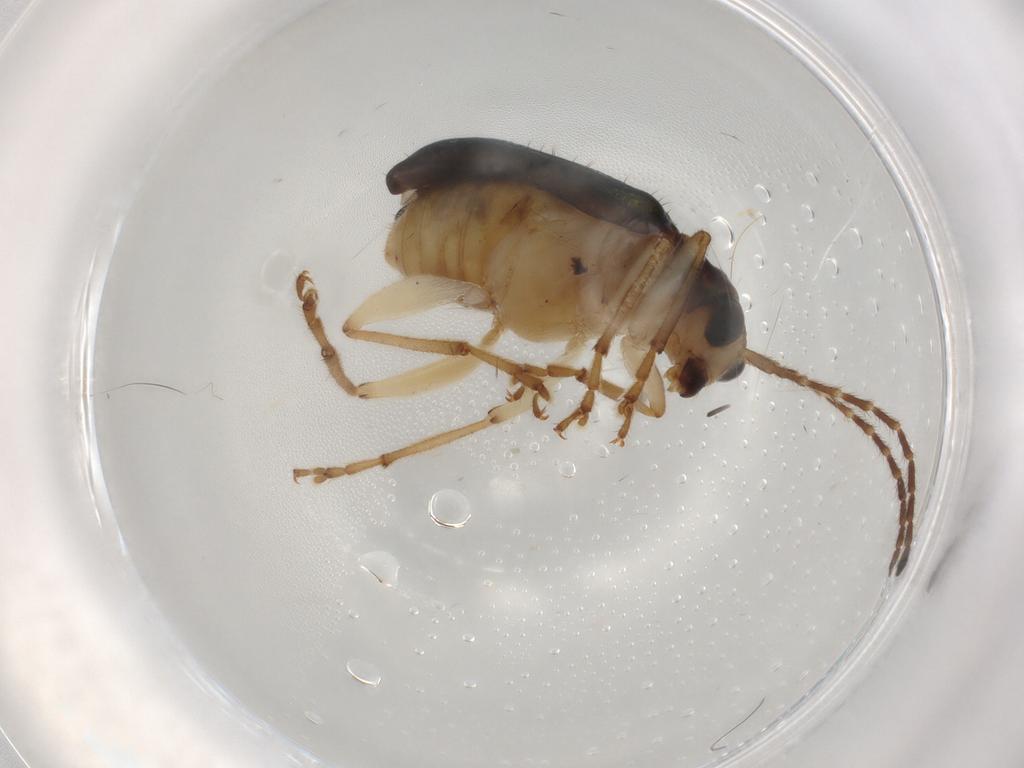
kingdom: Animalia
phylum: Arthropoda
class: Insecta
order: Coleoptera
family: Chrysomelidae
